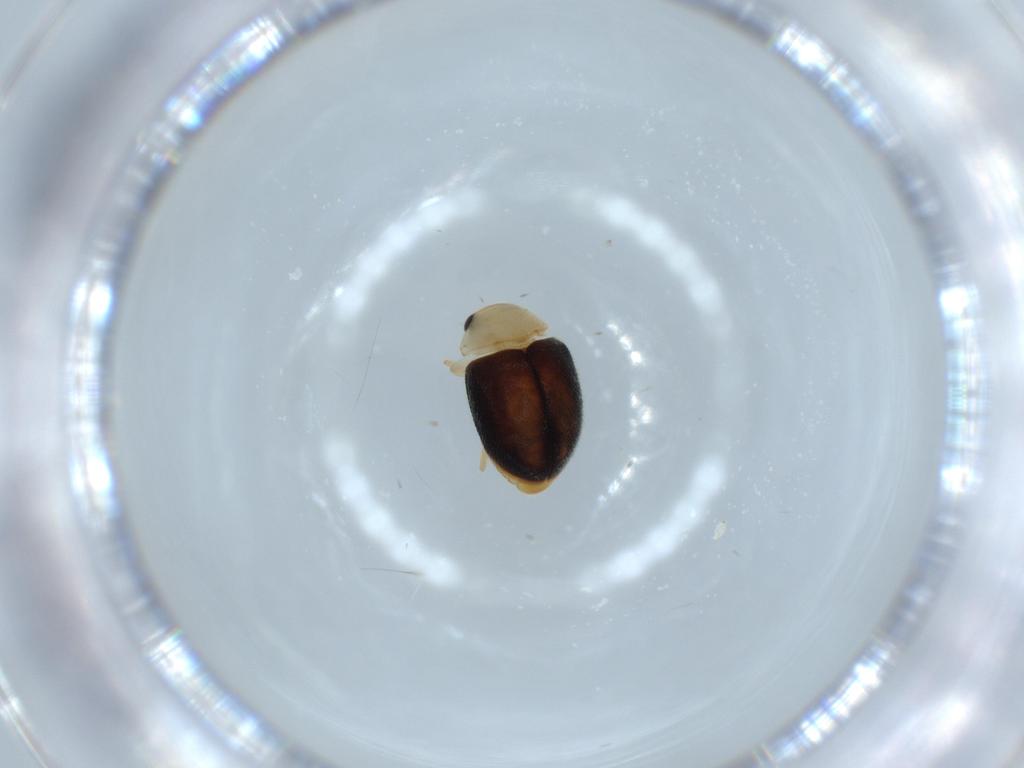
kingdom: Animalia
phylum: Arthropoda
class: Insecta
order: Coleoptera
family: Coccinellidae
